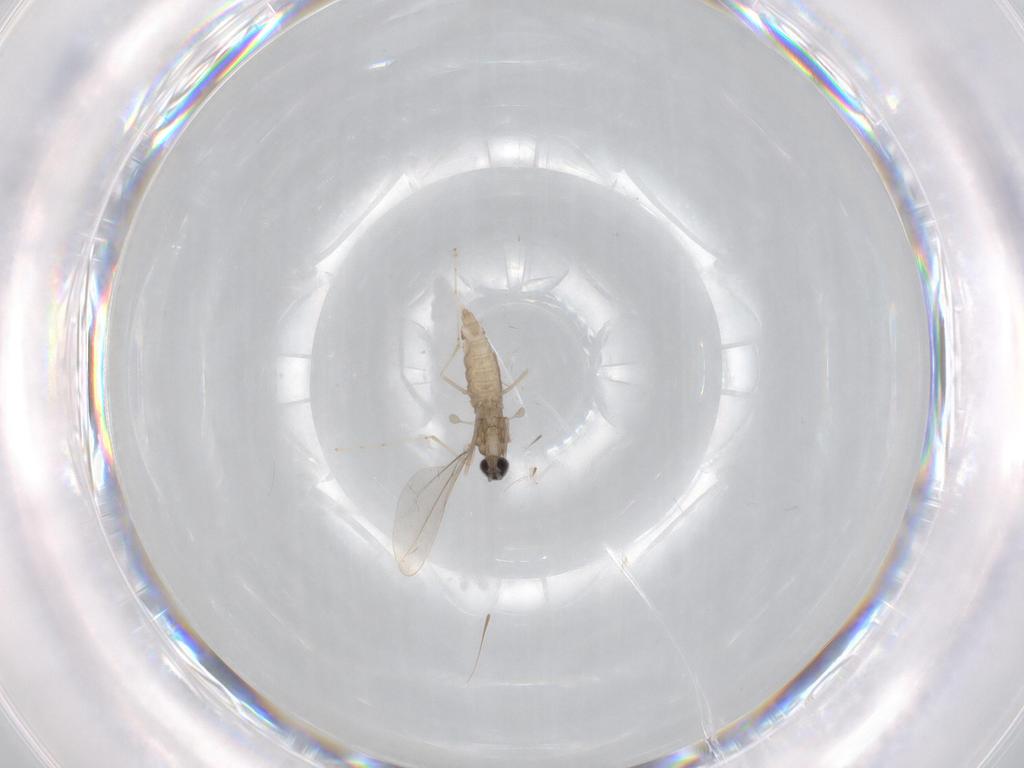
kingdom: Animalia
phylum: Arthropoda
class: Insecta
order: Diptera
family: Cecidomyiidae
